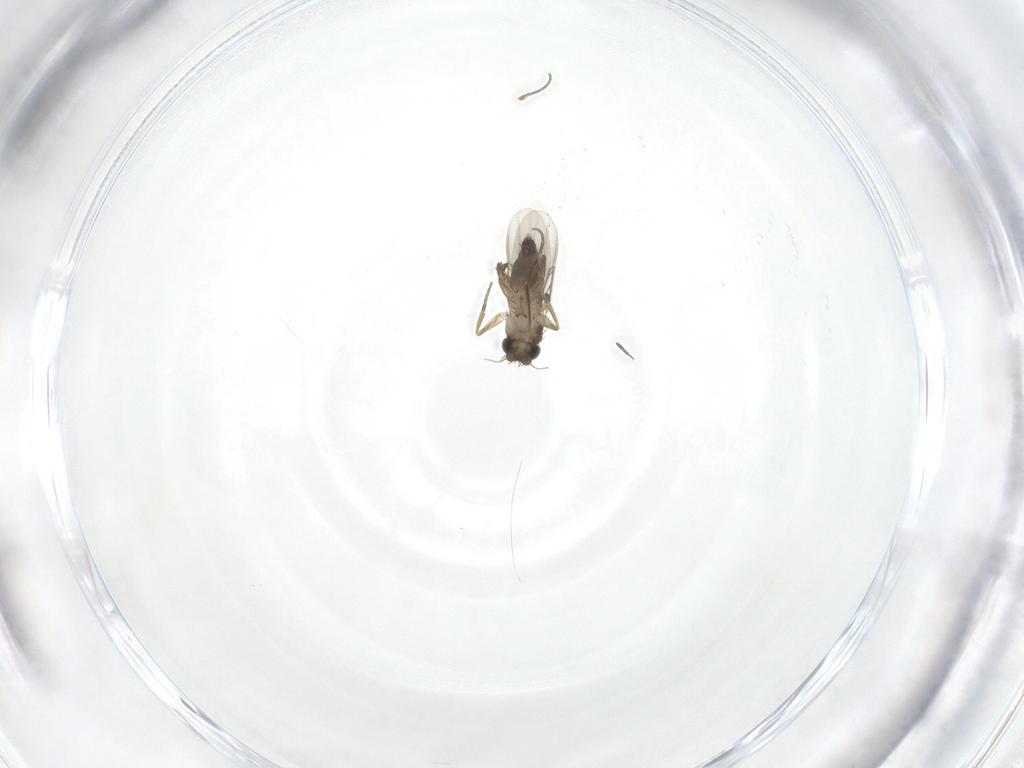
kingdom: Animalia
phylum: Arthropoda
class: Insecta
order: Diptera
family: Phoridae
